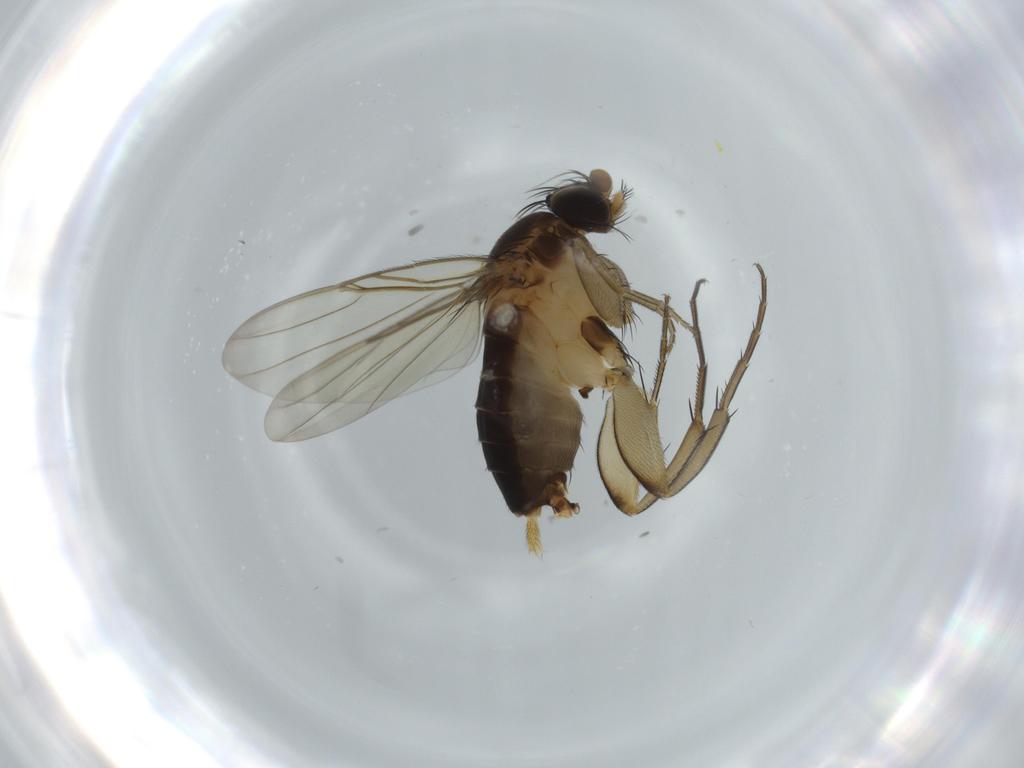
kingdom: Animalia
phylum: Arthropoda
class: Insecta
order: Diptera
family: Phoridae
